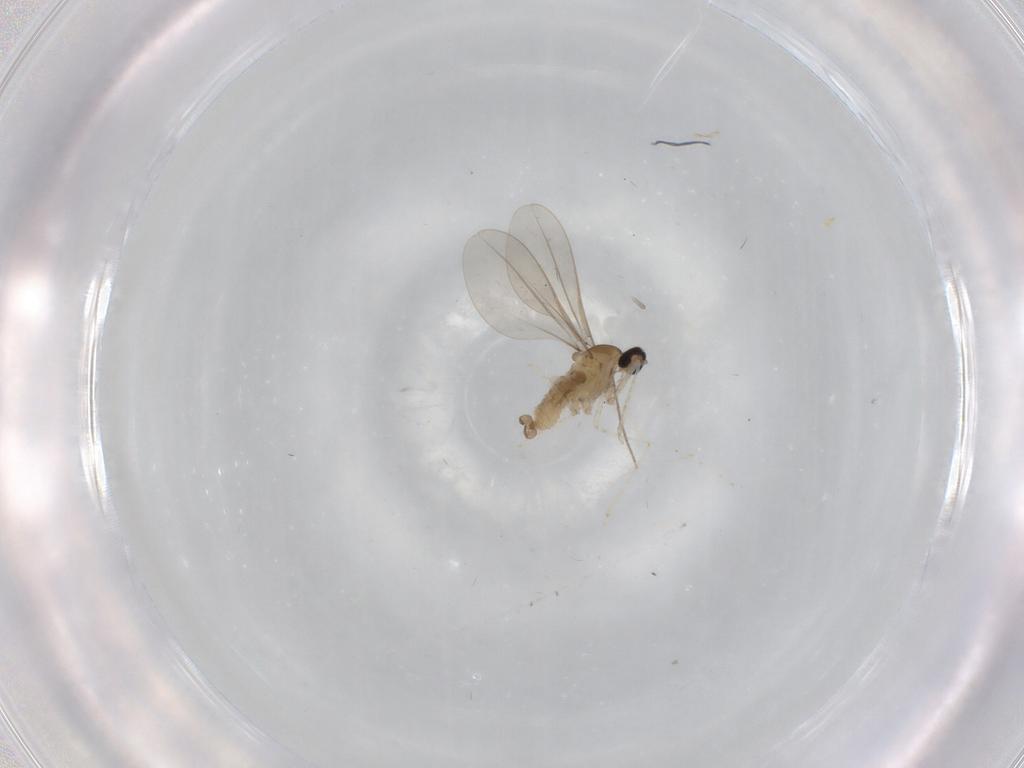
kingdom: Animalia
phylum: Arthropoda
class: Insecta
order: Diptera
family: Chironomidae
